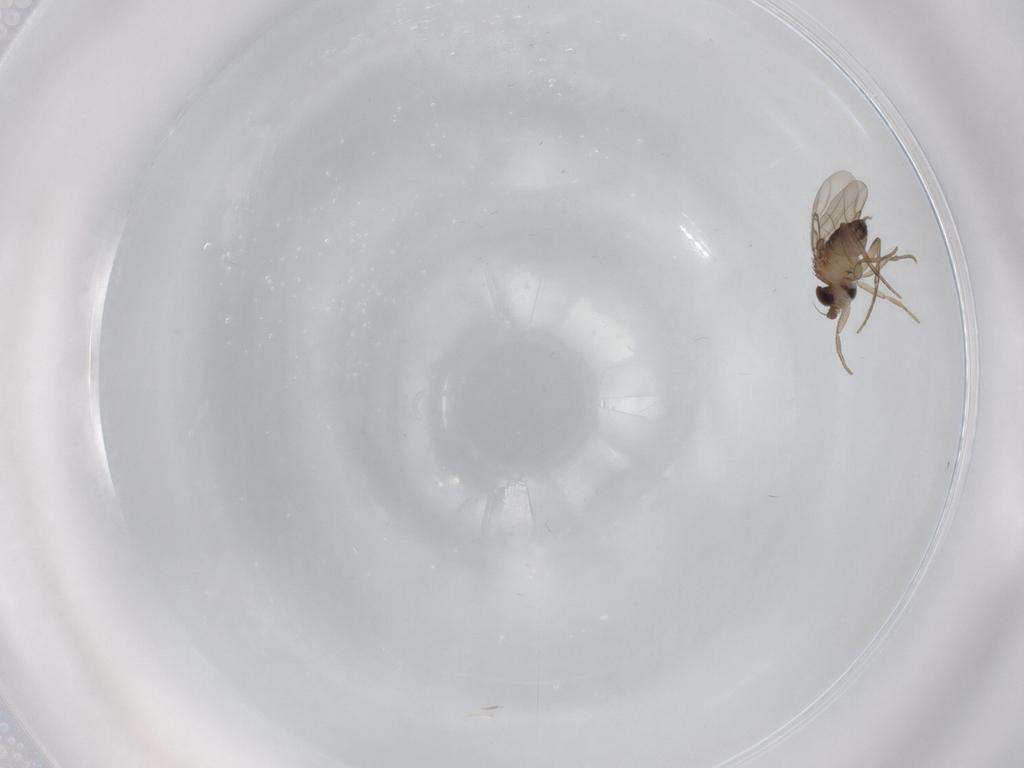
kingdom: Animalia
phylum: Arthropoda
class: Insecta
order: Diptera
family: Phoridae
